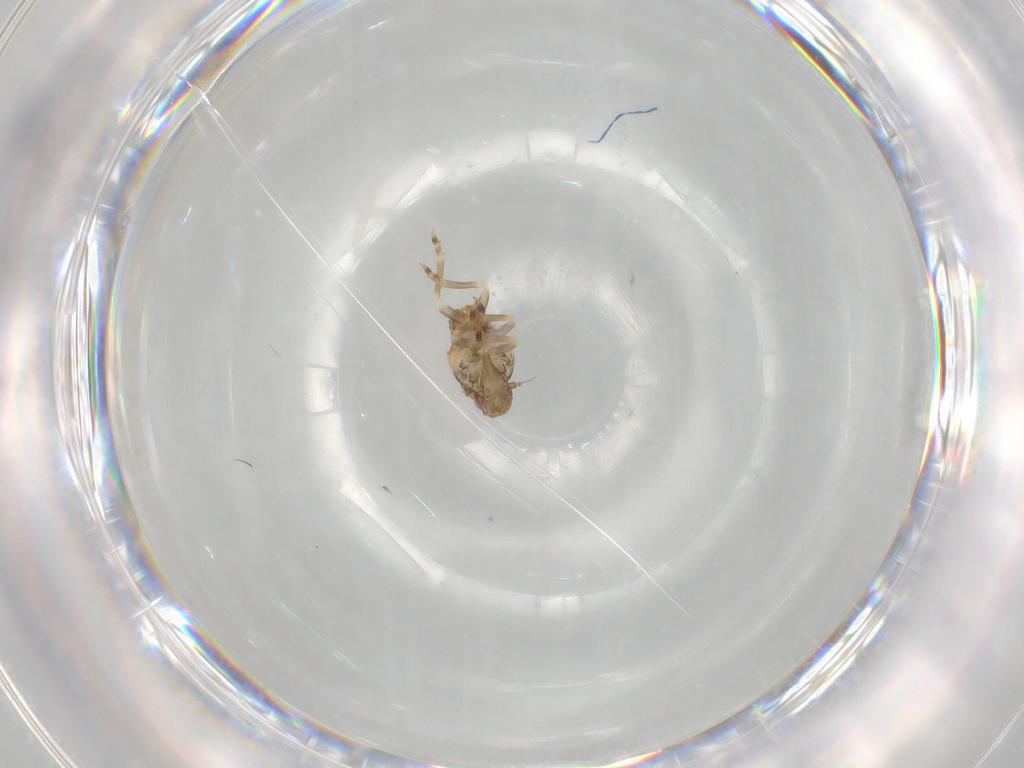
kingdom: Animalia
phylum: Arthropoda
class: Insecta
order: Hemiptera
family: Flatidae
